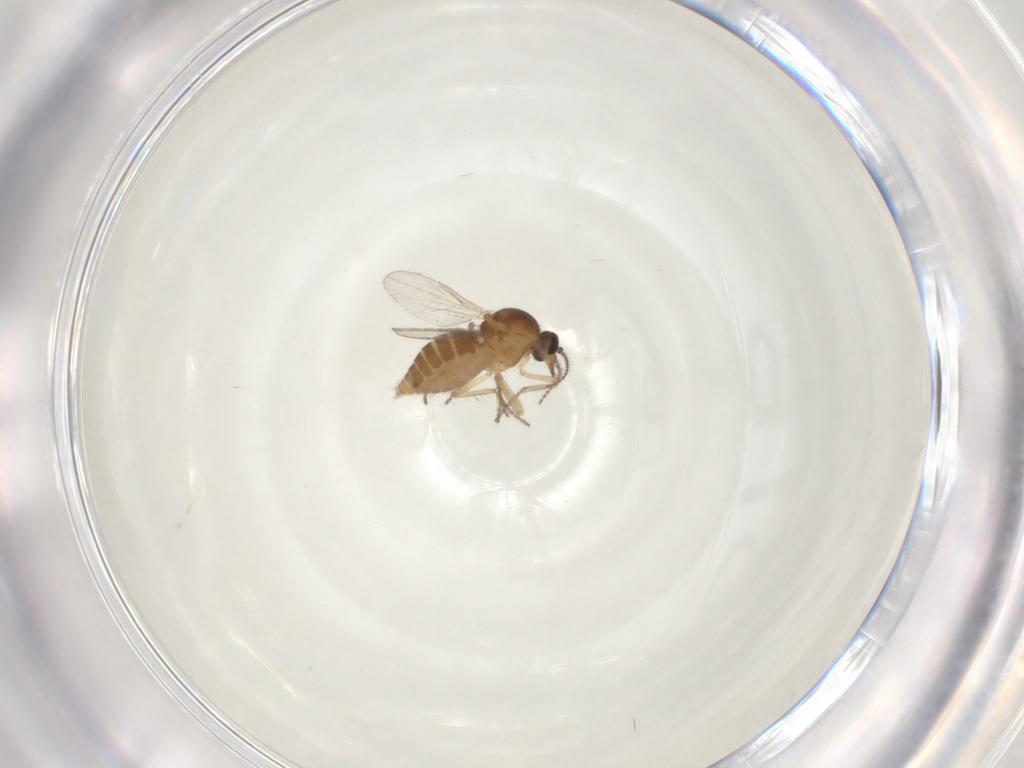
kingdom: Animalia
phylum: Arthropoda
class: Insecta
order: Diptera
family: Ceratopogonidae
